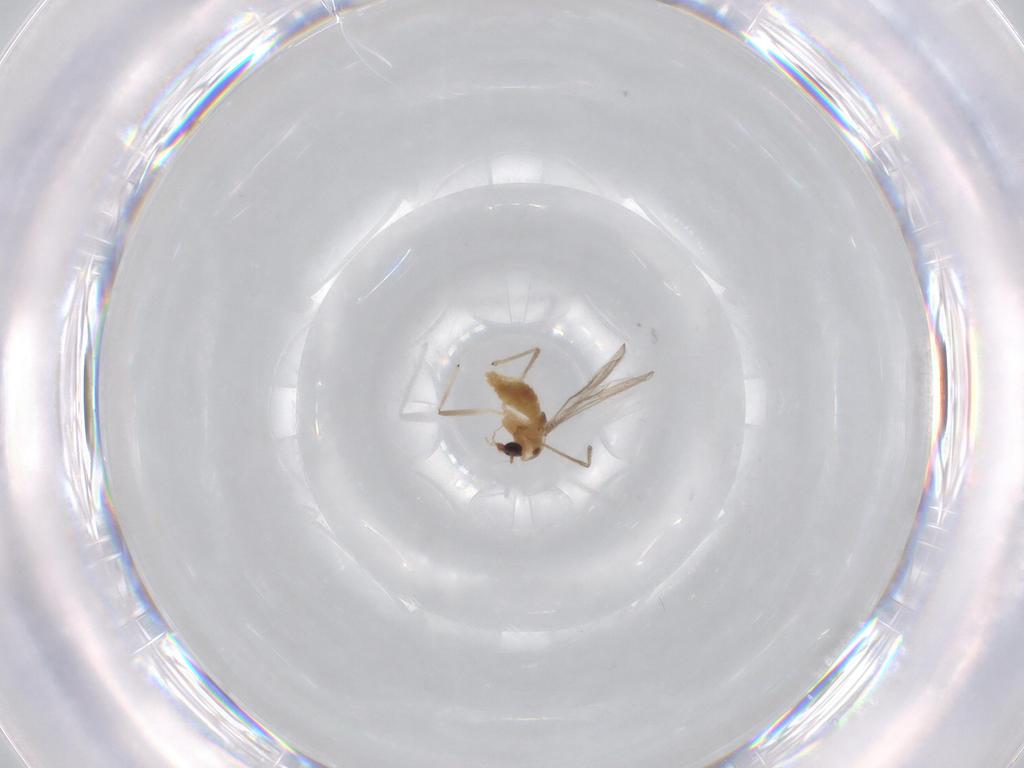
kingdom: Animalia
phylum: Arthropoda
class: Insecta
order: Diptera
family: Chironomidae
